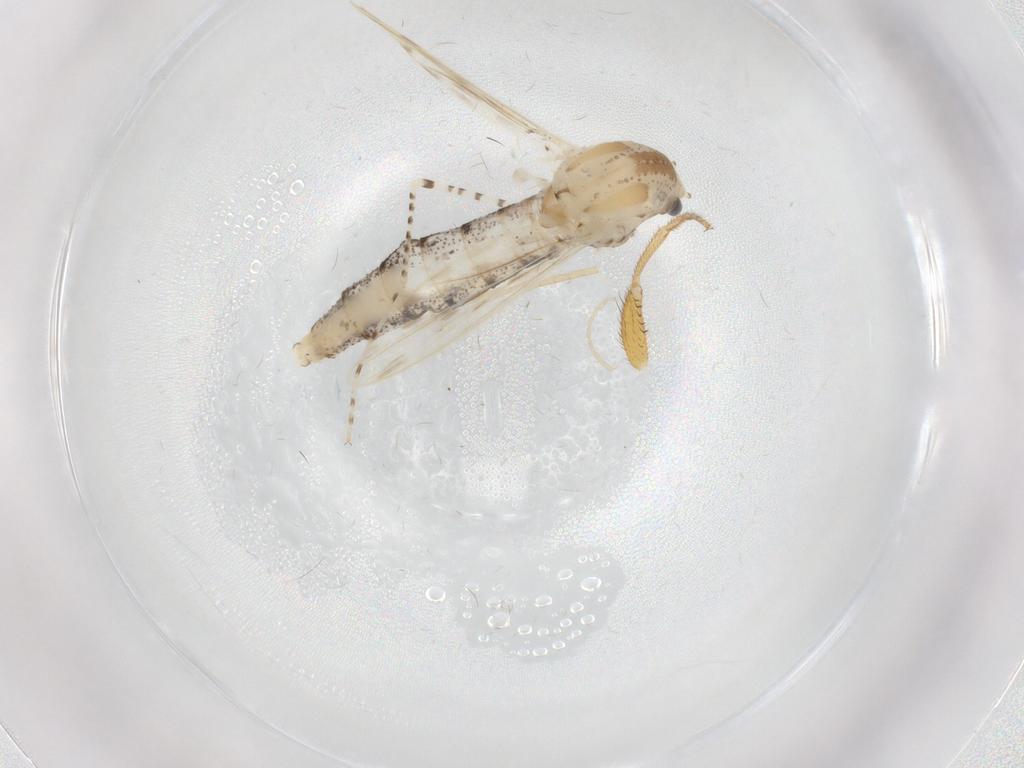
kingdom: Animalia
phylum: Arthropoda
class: Insecta
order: Diptera
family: Chaoboridae
